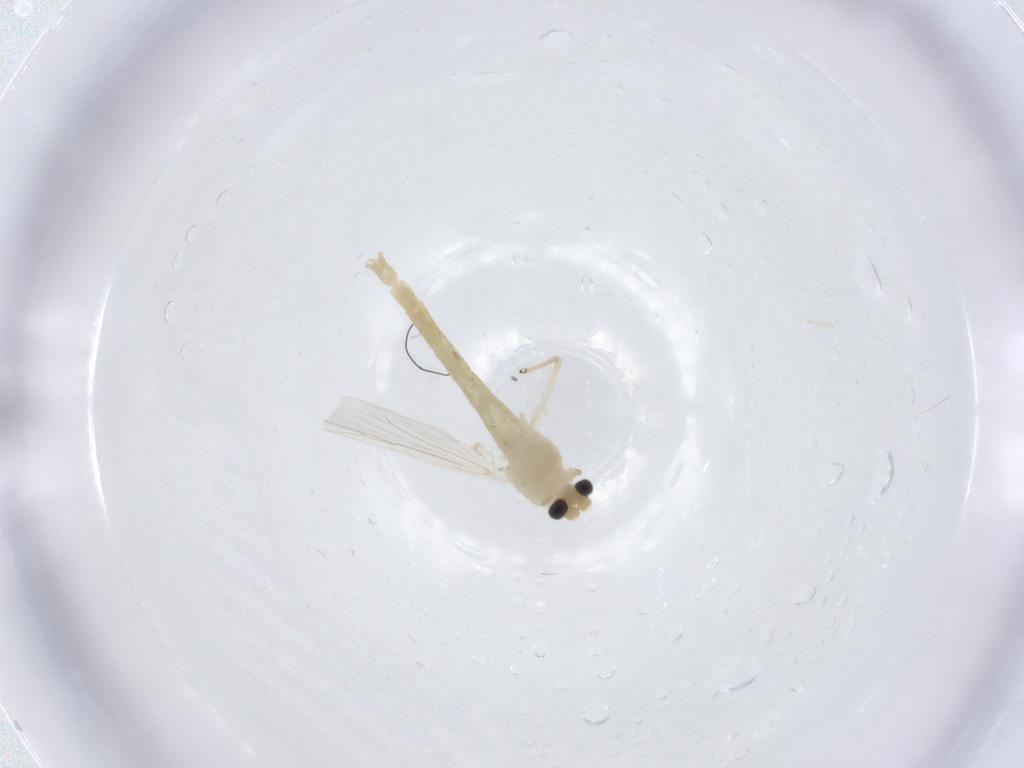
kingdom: Animalia
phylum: Arthropoda
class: Insecta
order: Diptera
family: Chironomidae
